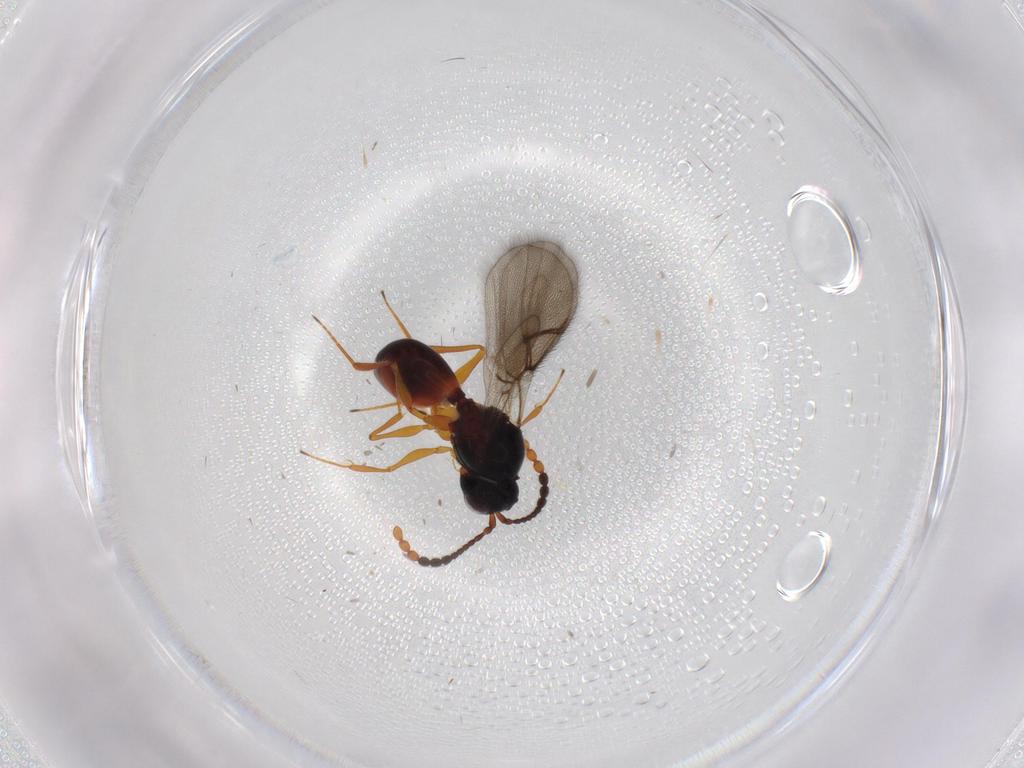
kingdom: Animalia
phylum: Arthropoda
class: Insecta
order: Hymenoptera
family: Figitidae
